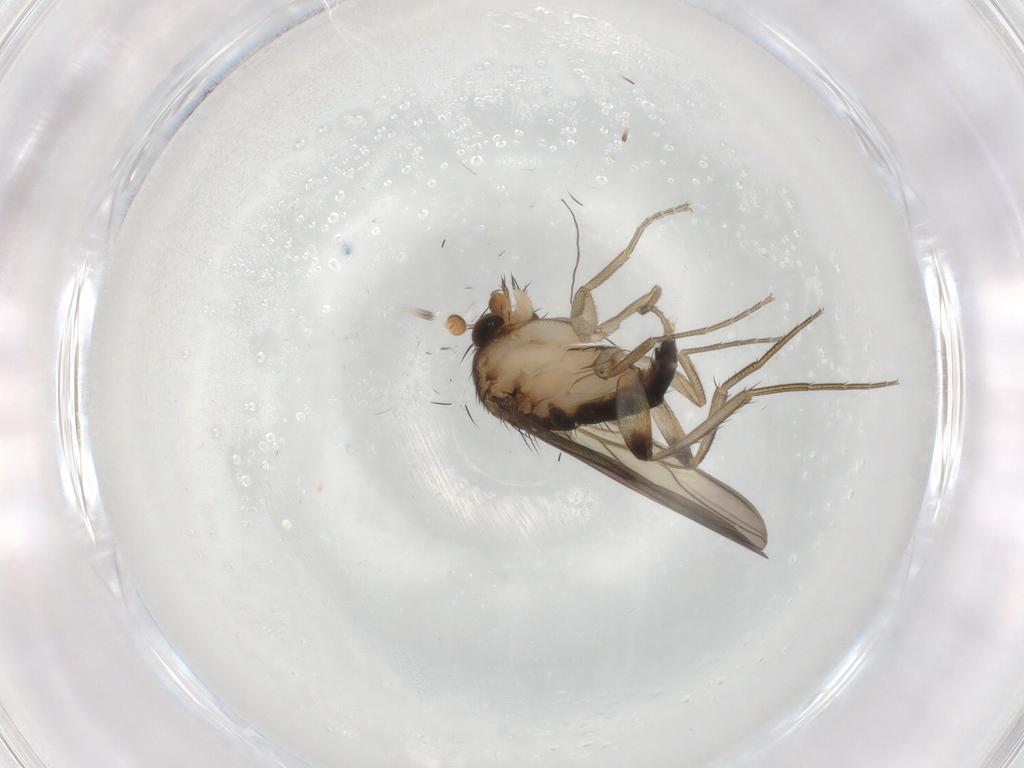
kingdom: Animalia
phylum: Arthropoda
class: Insecta
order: Diptera
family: Phoridae
